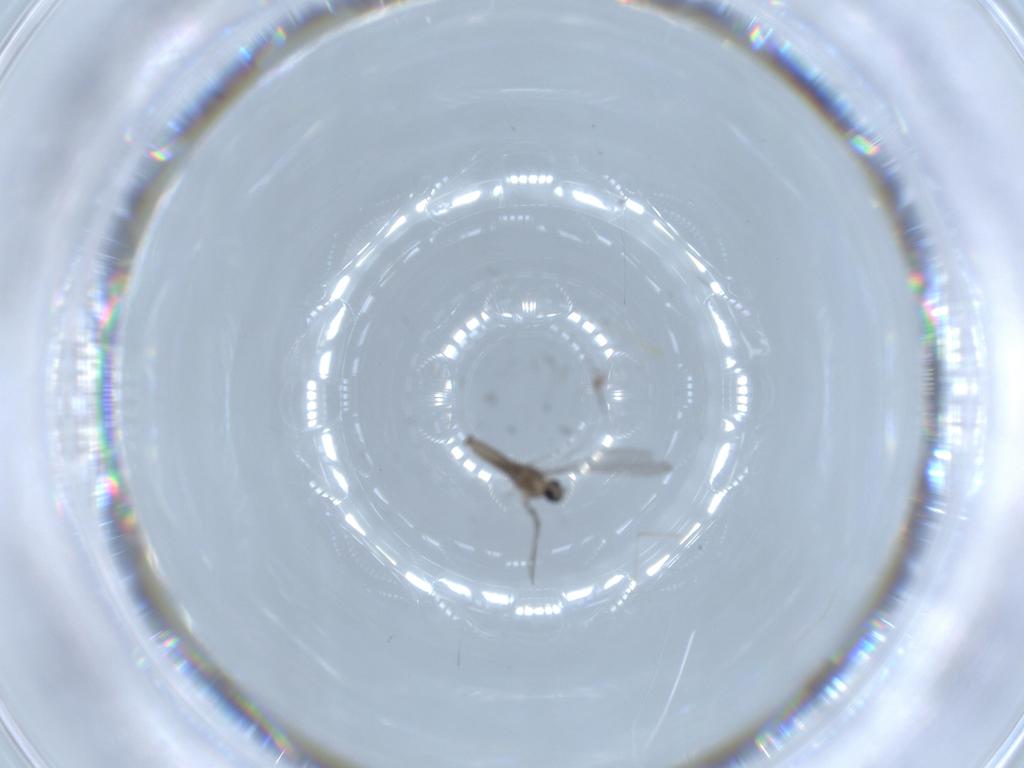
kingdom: Animalia
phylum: Arthropoda
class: Insecta
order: Diptera
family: Cecidomyiidae
